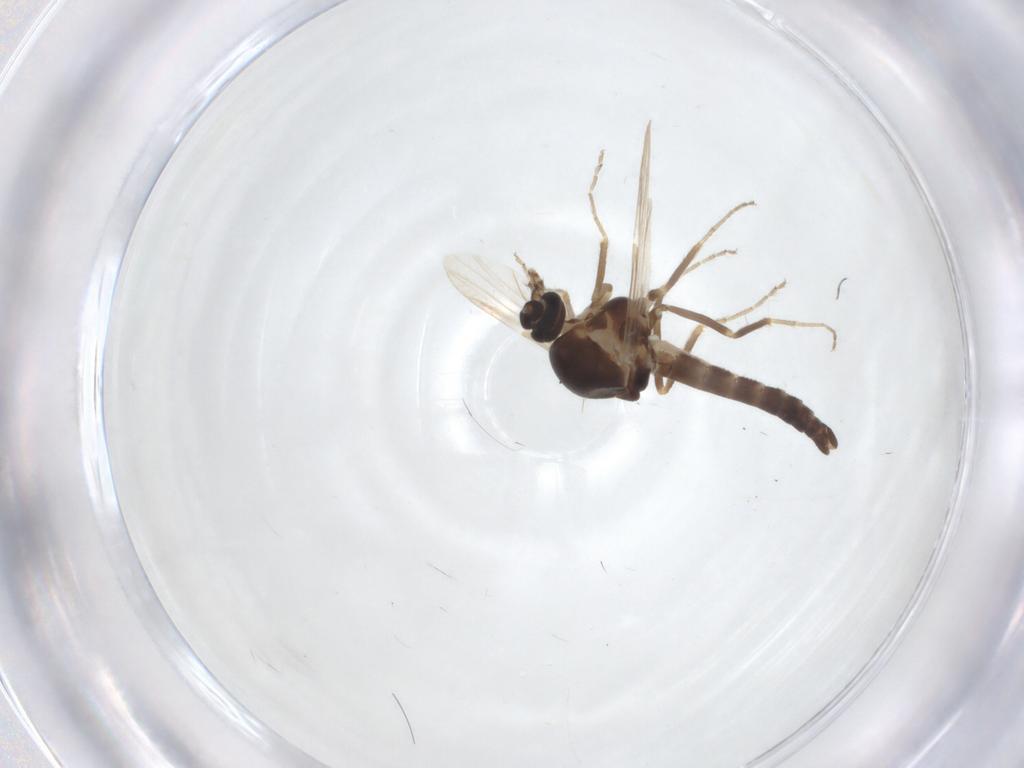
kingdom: Animalia
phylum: Arthropoda
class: Insecta
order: Diptera
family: Ceratopogonidae
